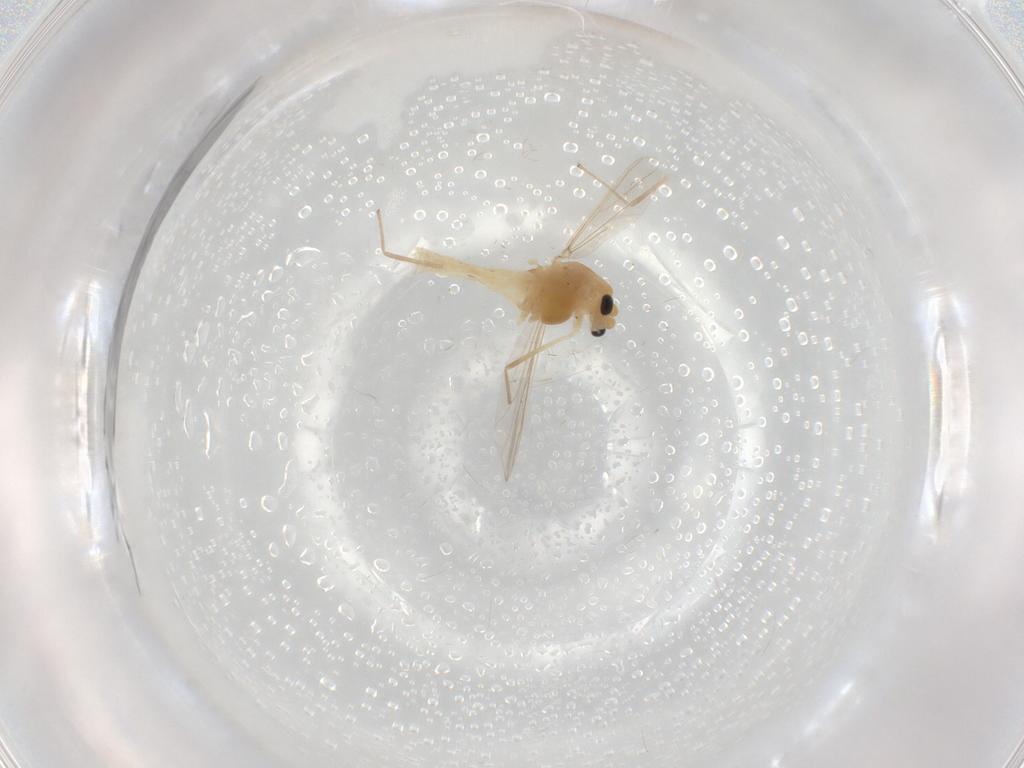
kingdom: Animalia
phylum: Arthropoda
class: Insecta
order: Diptera
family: Chironomidae
